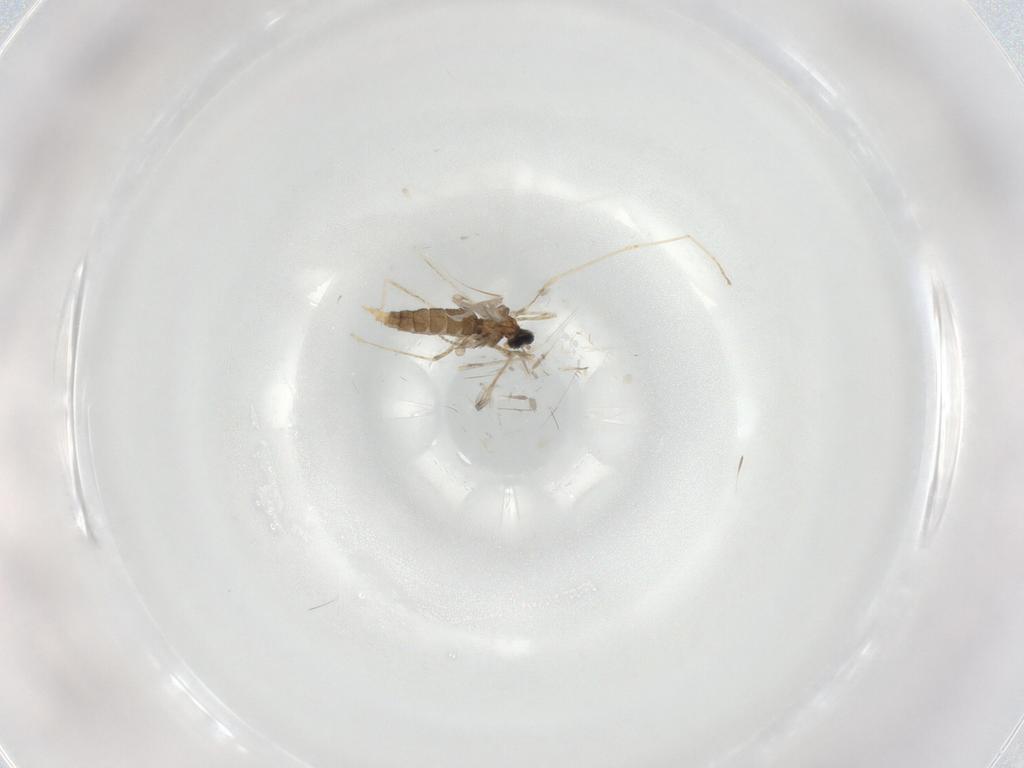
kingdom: Animalia
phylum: Arthropoda
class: Insecta
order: Diptera
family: Cecidomyiidae
